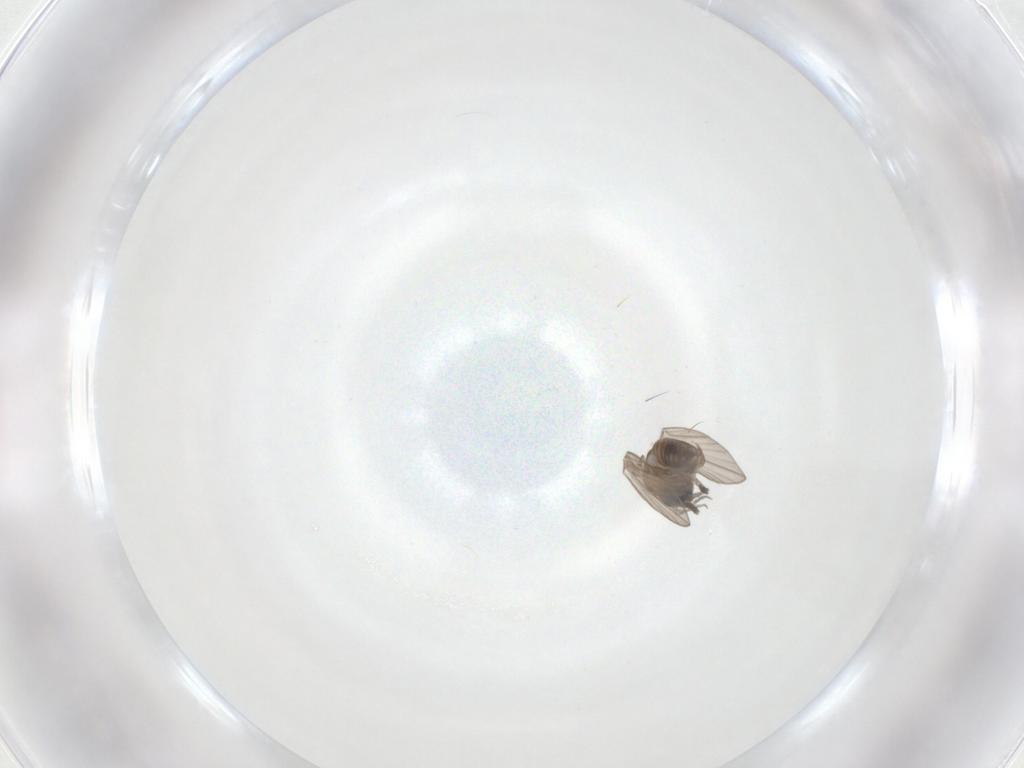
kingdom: Animalia
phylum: Arthropoda
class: Insecta
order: Diptera
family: Psychodidae
